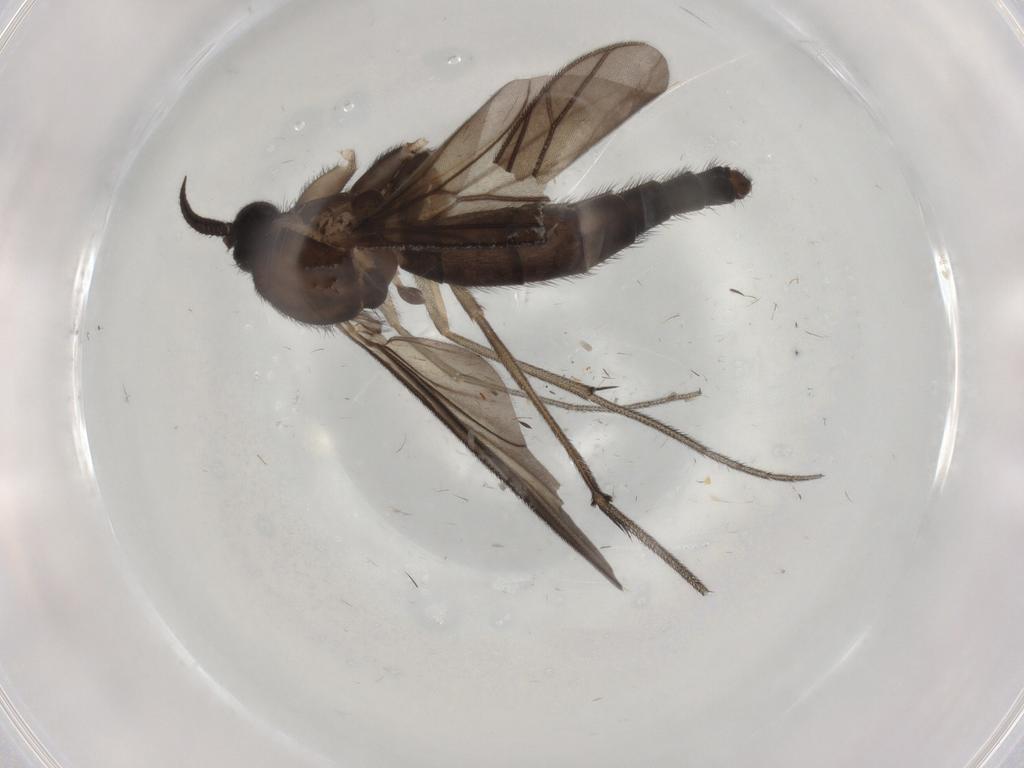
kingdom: Animalia
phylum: Arthropoda
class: Insecta
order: Diptera
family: Keroplatidae
